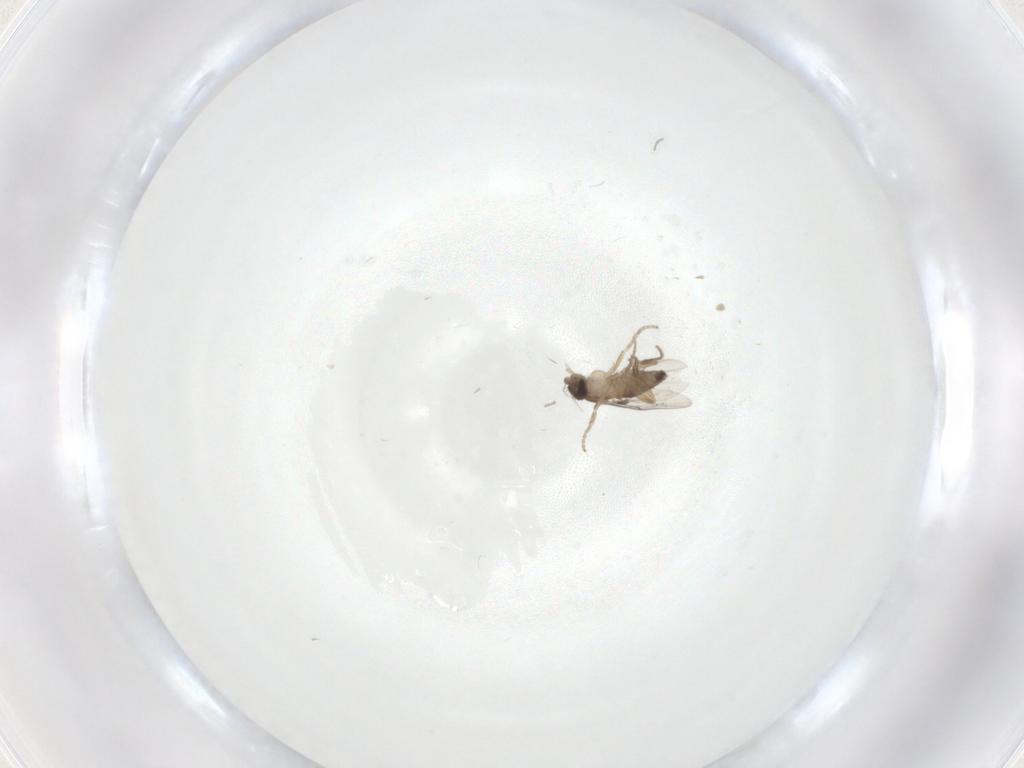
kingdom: Animalia
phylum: Arthropoda
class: Insecta
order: Diptera
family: Phoridae
